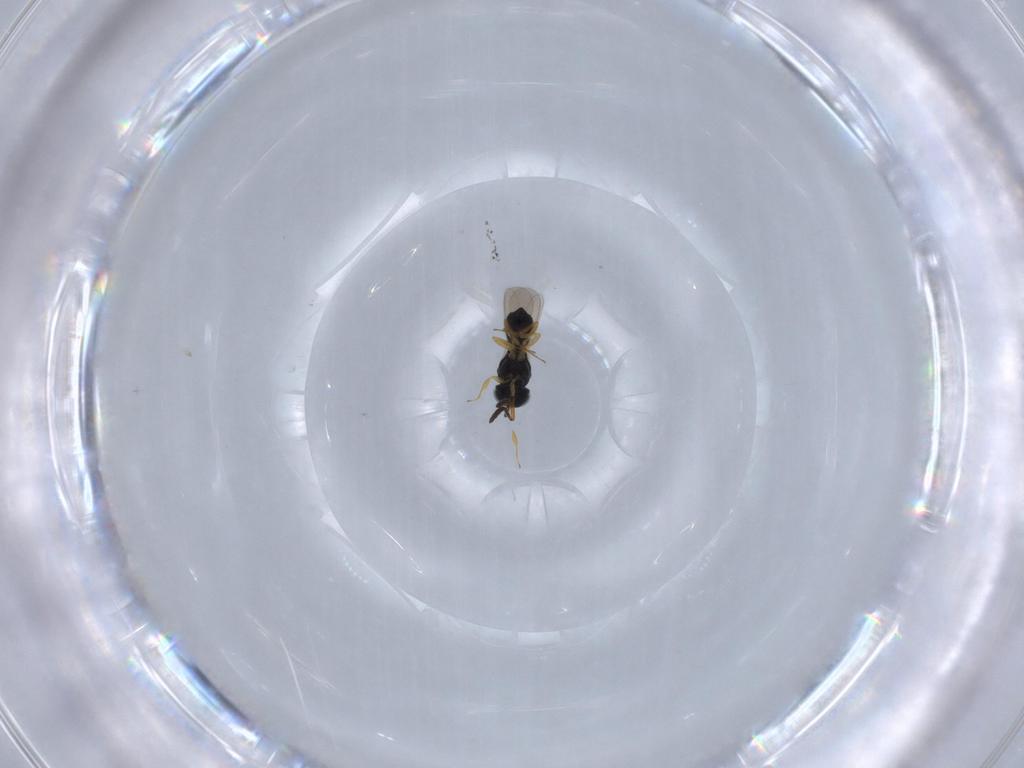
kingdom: Animalia
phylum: Arthropoda
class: Insecta
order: Hymenoptera
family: Scelionidae
